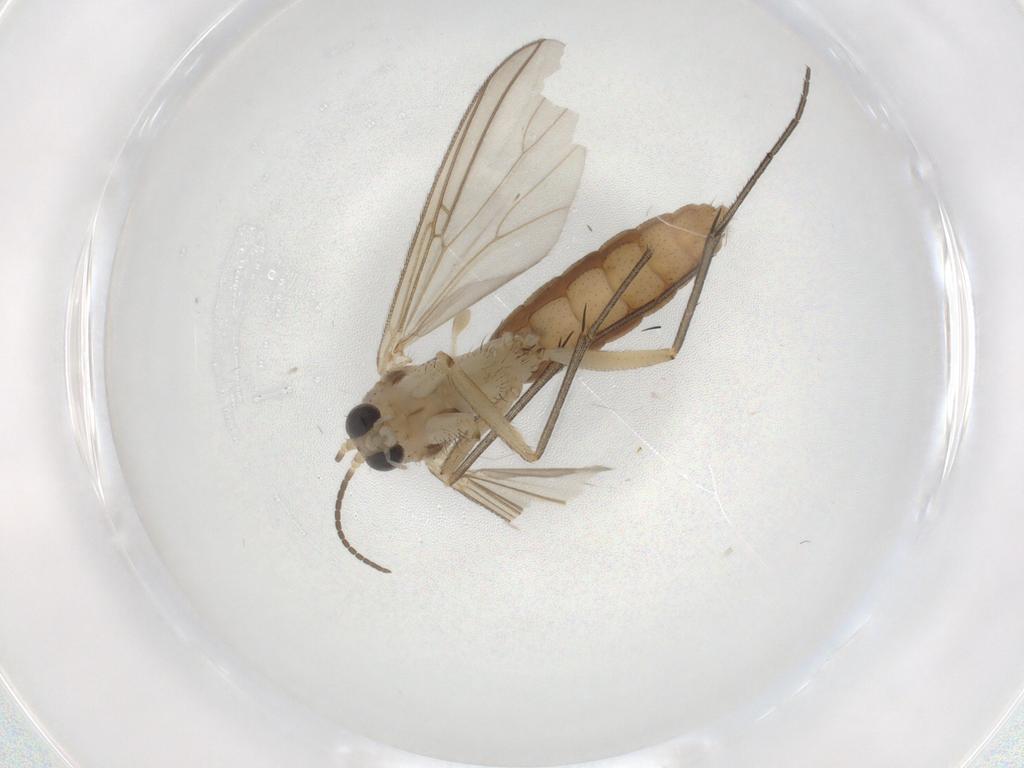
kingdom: Animalia
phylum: Arthropoda
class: Insecta
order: Diptera
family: Cecidomyiidae
